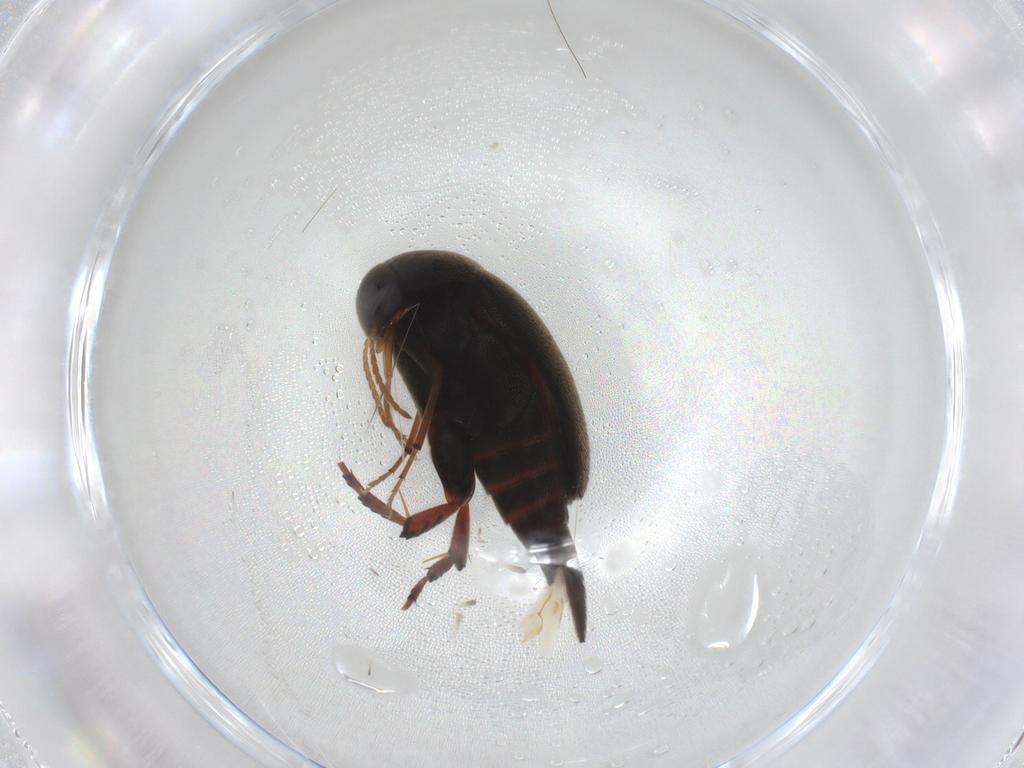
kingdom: Animalia
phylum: Arthropoda
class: Insecta
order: Coleoptera
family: Mordellidae
